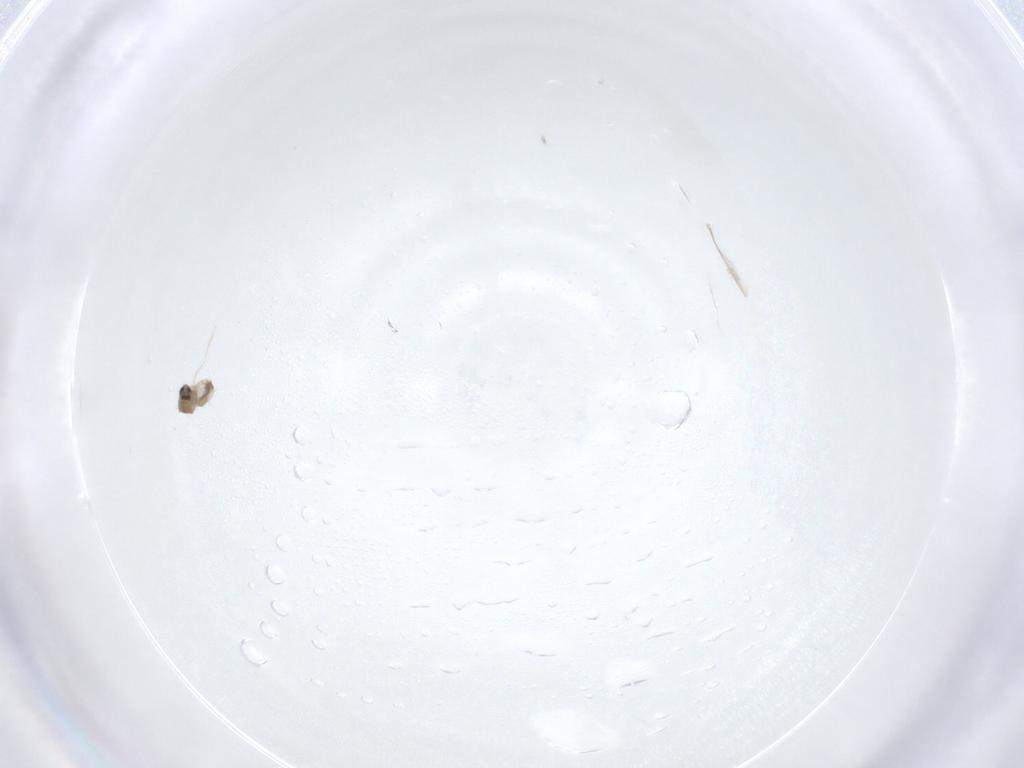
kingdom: Animalia
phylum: Arthropoda
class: Insecta
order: Diptera
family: Cecidomyiidae
